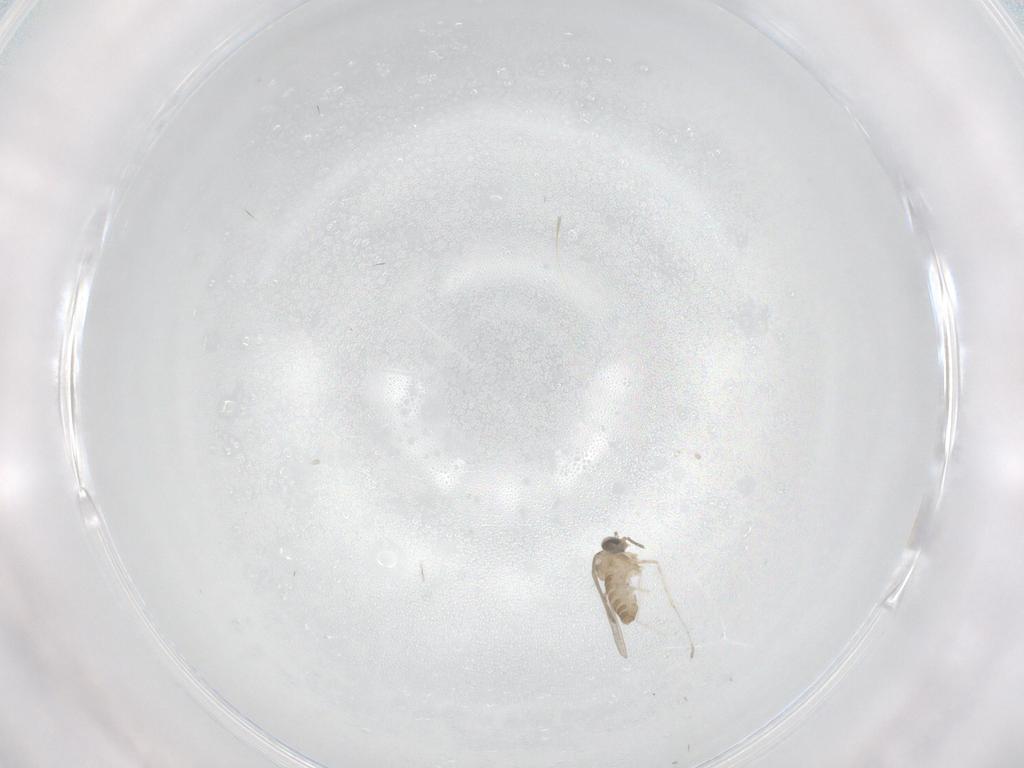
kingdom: Animalia
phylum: Arthropoda
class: Insecta
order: Diptera
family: Cecidomyiidae
